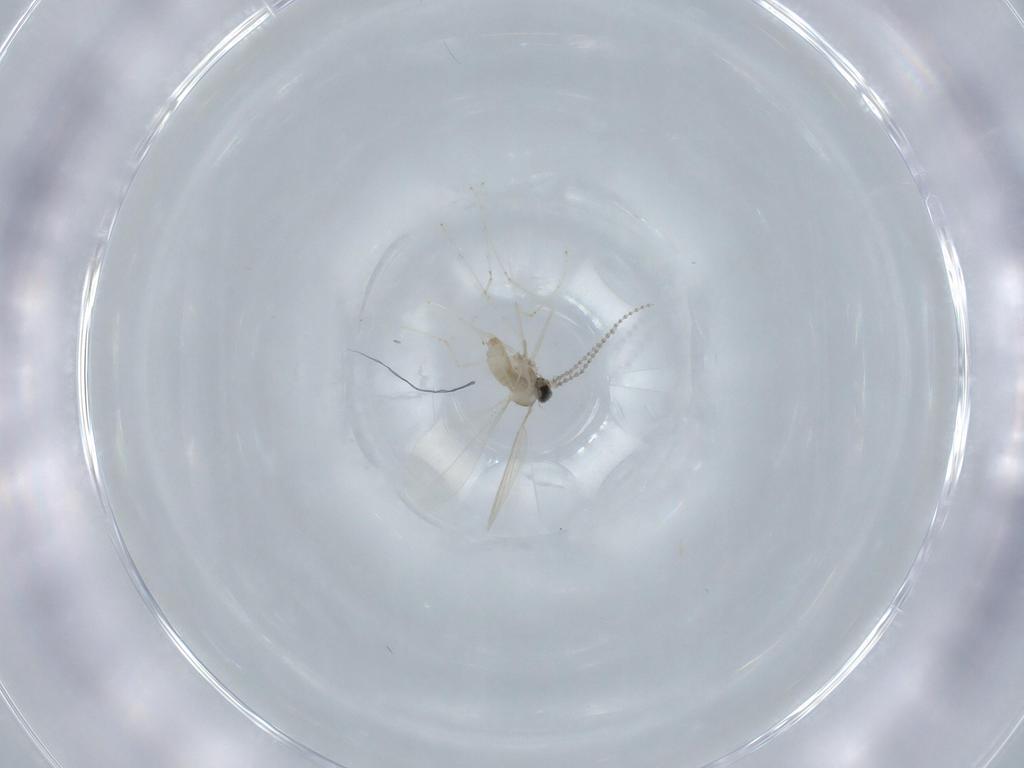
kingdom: Animalia
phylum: Arthropoda
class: Insecta
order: Diptera
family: Cecidomyiidae
